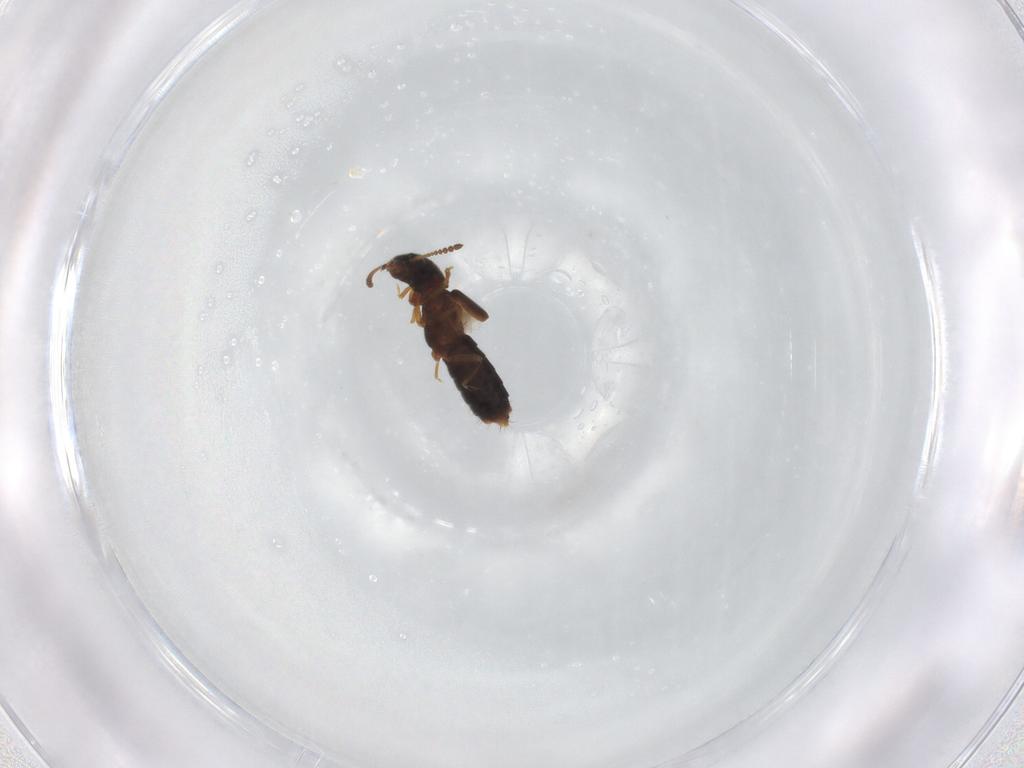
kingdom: Animalia
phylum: Arthropoda
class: Insecta
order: Coleoptera
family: Staphylinidae
